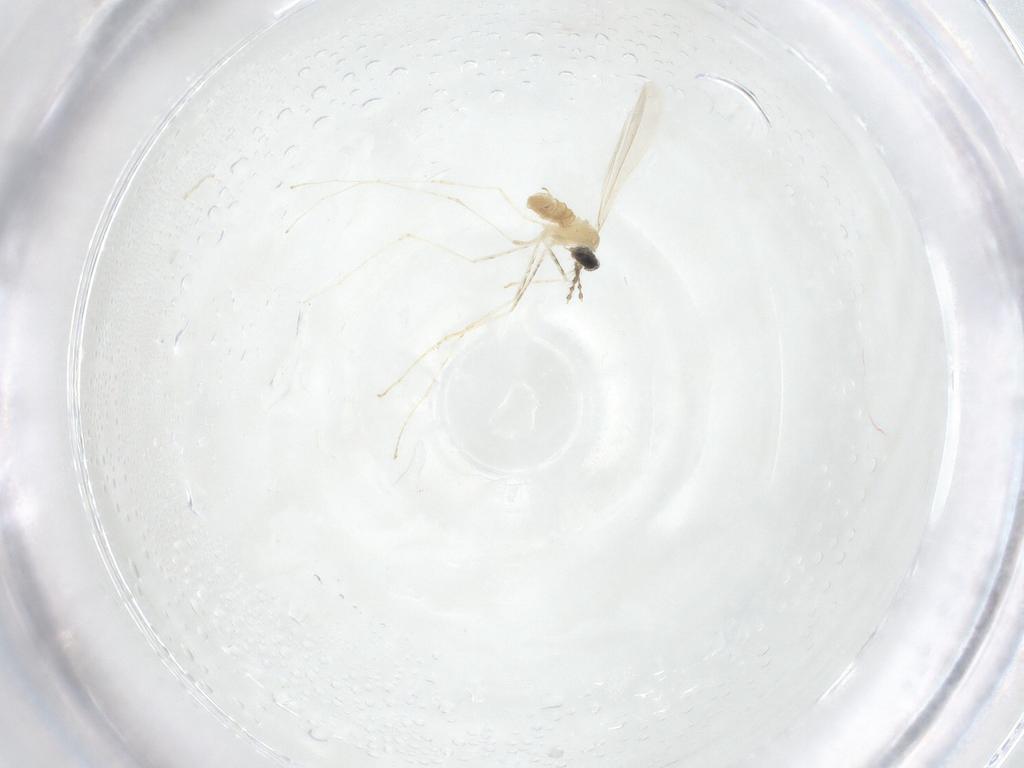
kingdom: Animalia
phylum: Arthropoda
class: Insecta
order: Diptera
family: Cecidomyiidae
